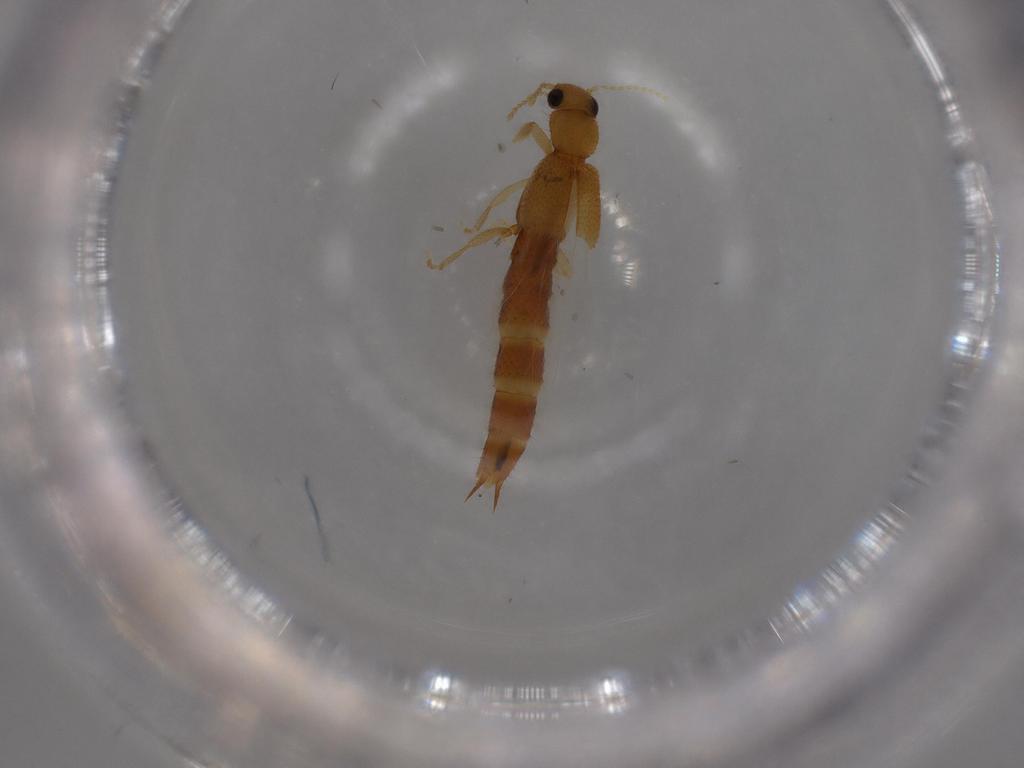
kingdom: Animalia
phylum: Arthropoda
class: Insecta
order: Coleoptera
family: Staphylinidae
